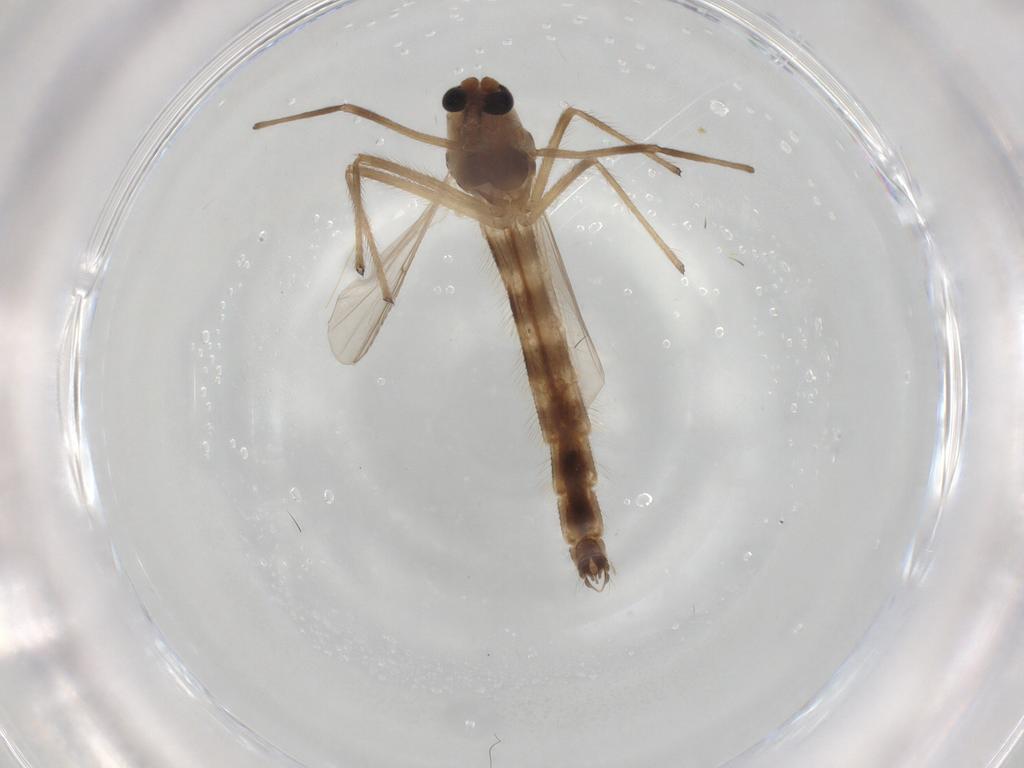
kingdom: Animalia
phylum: Arthropoda
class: Insecta
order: Diptera
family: Chironomidae
